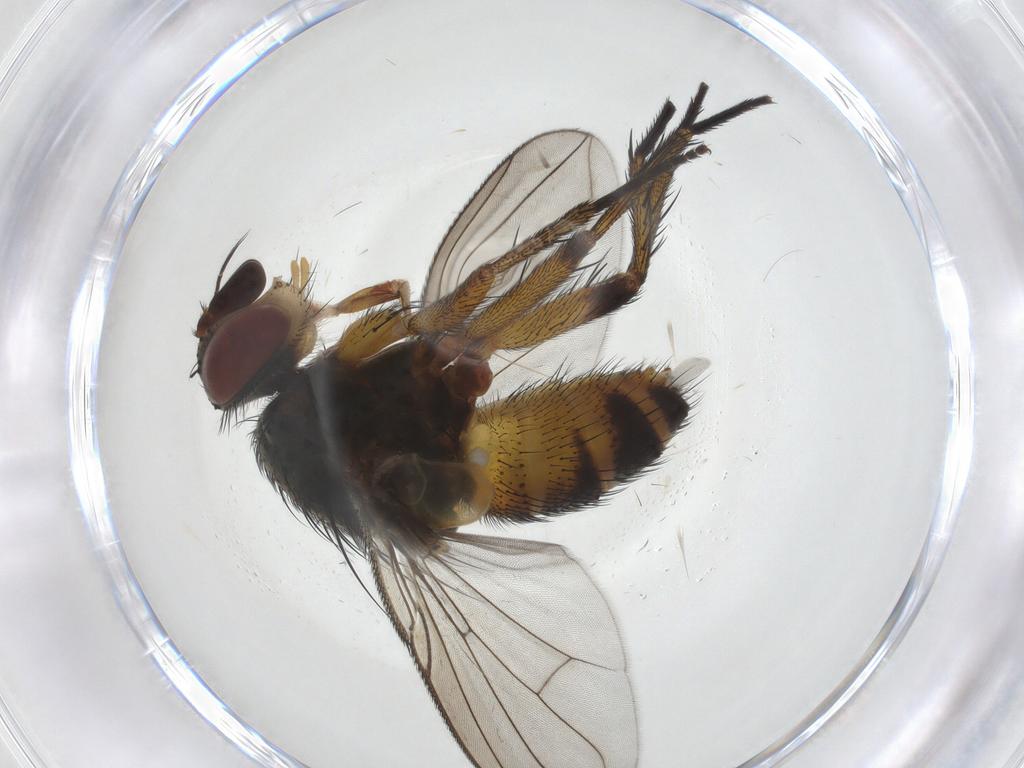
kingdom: Animalia
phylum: Arthropoda
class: Insecta
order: Diptera
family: Tachinidae
